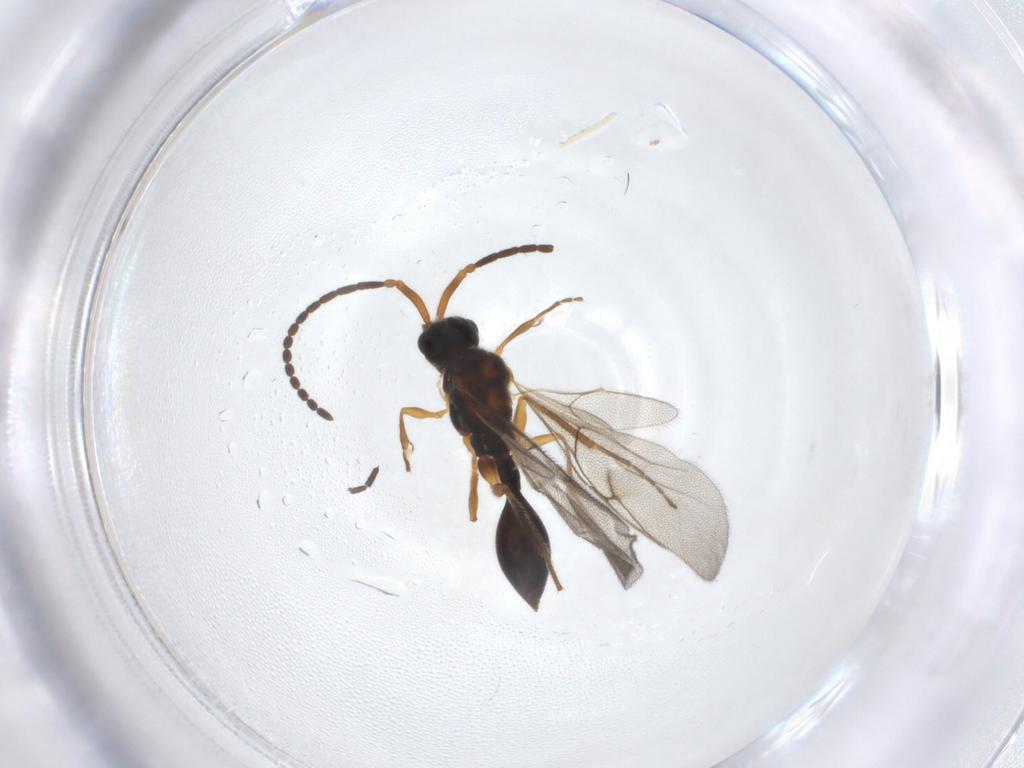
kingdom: Animalia
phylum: Arthropoda
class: Insecta
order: Hymenoptera
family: Diapriidae
